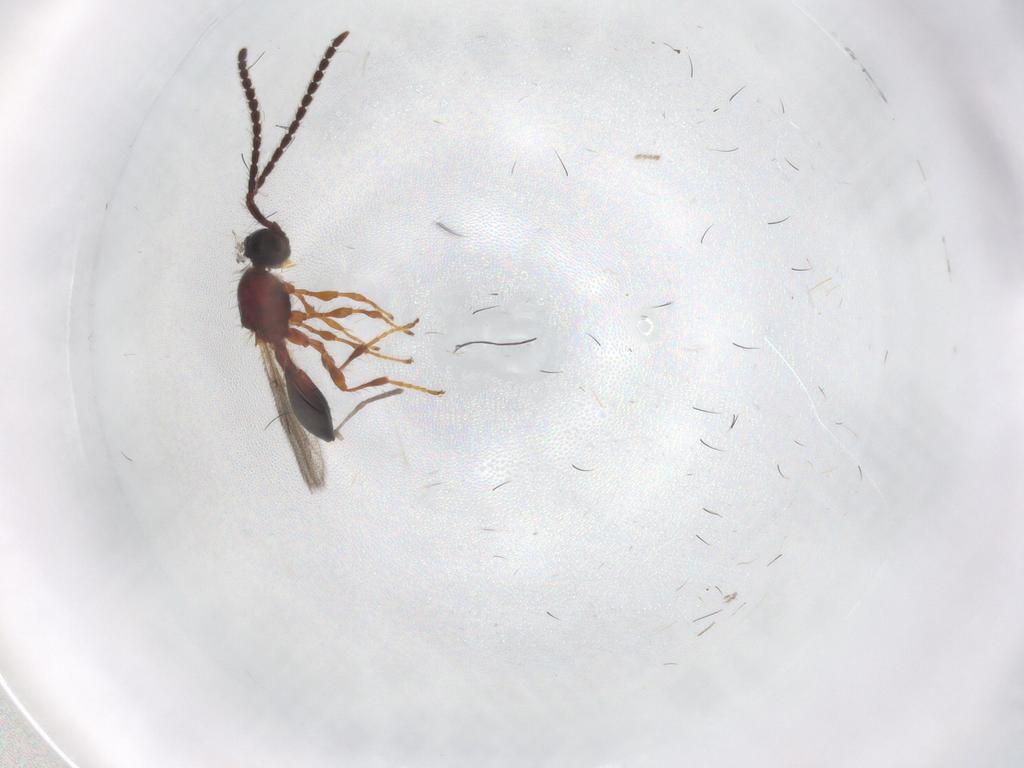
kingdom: Animalia
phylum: Arthropoda
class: Insecta
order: Hymenoptera
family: Diapriidae
